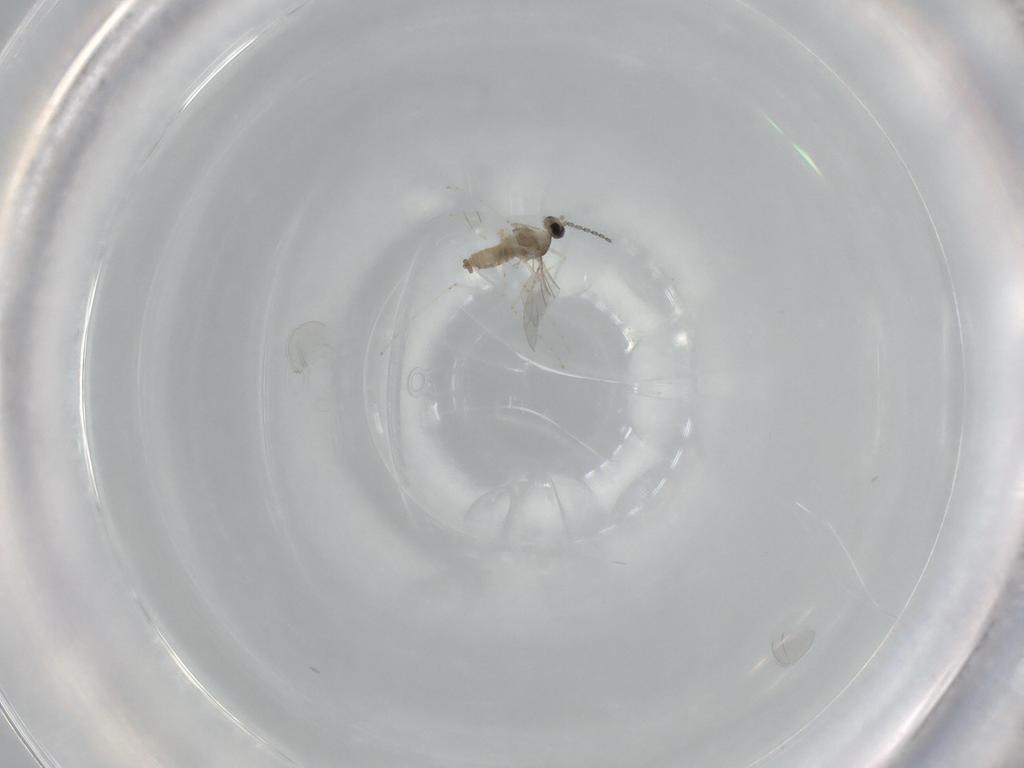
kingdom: Animalia
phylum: Arthropoda
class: Insecta
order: Diptera
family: Cecidomyiidae
